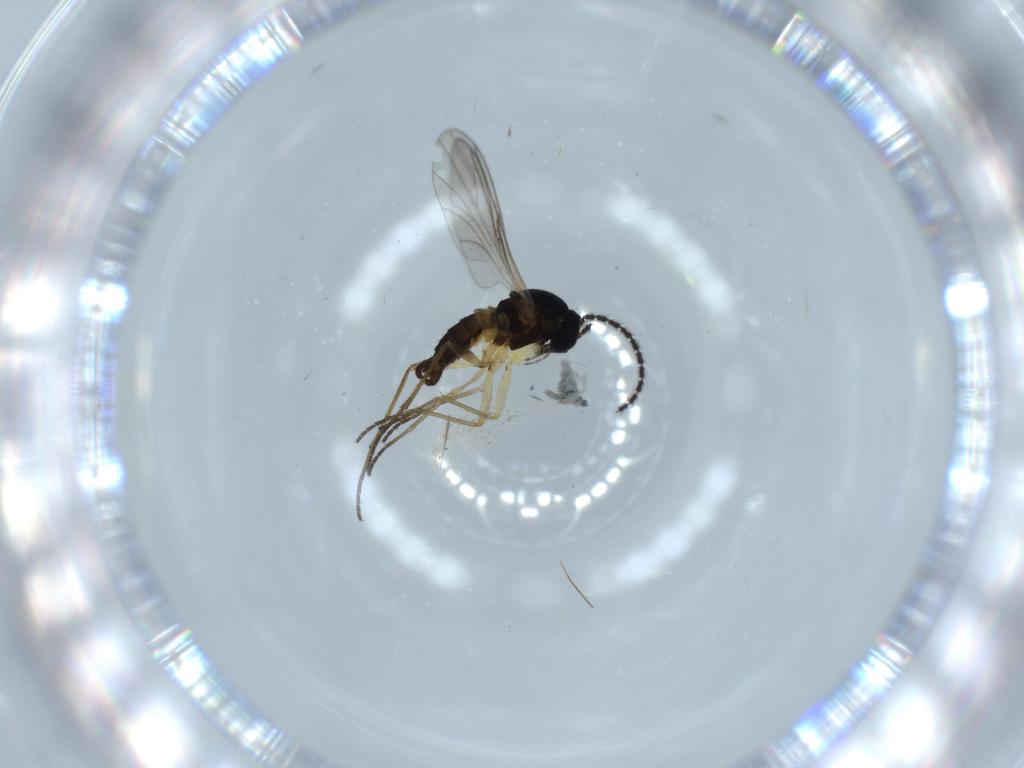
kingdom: Animalia
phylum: Arthropoda
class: Insecta
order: Diptera
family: Sciaridae
